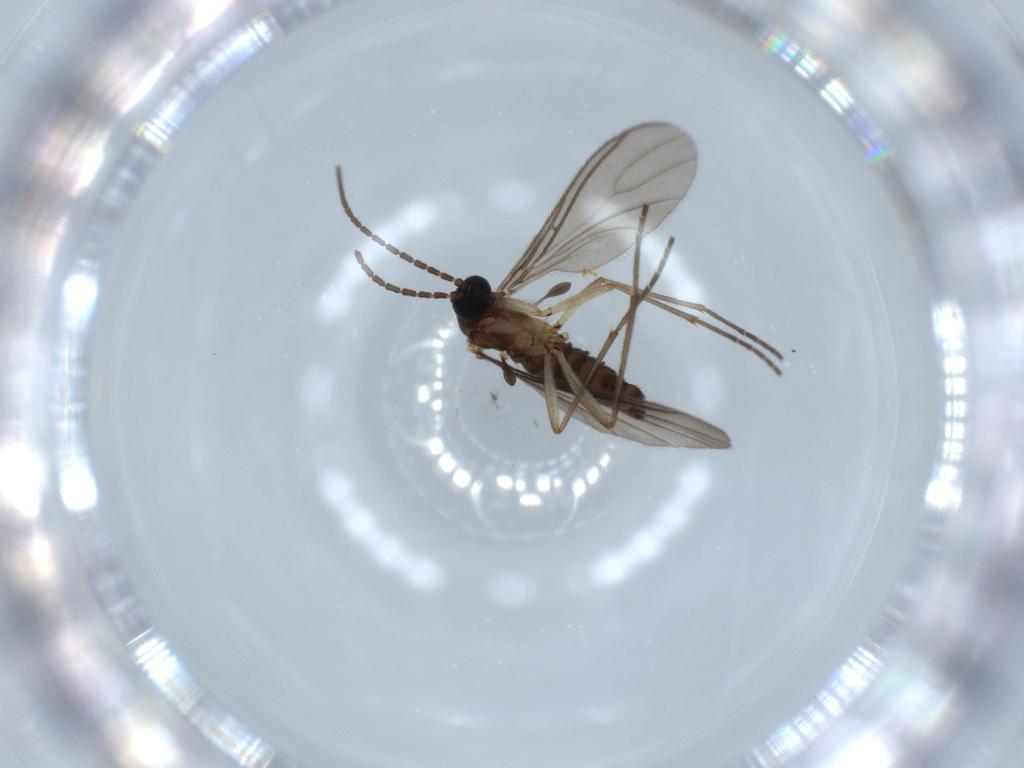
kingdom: Animalia
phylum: Arthropoda
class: Insecta
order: Diptera
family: Sciaridae
